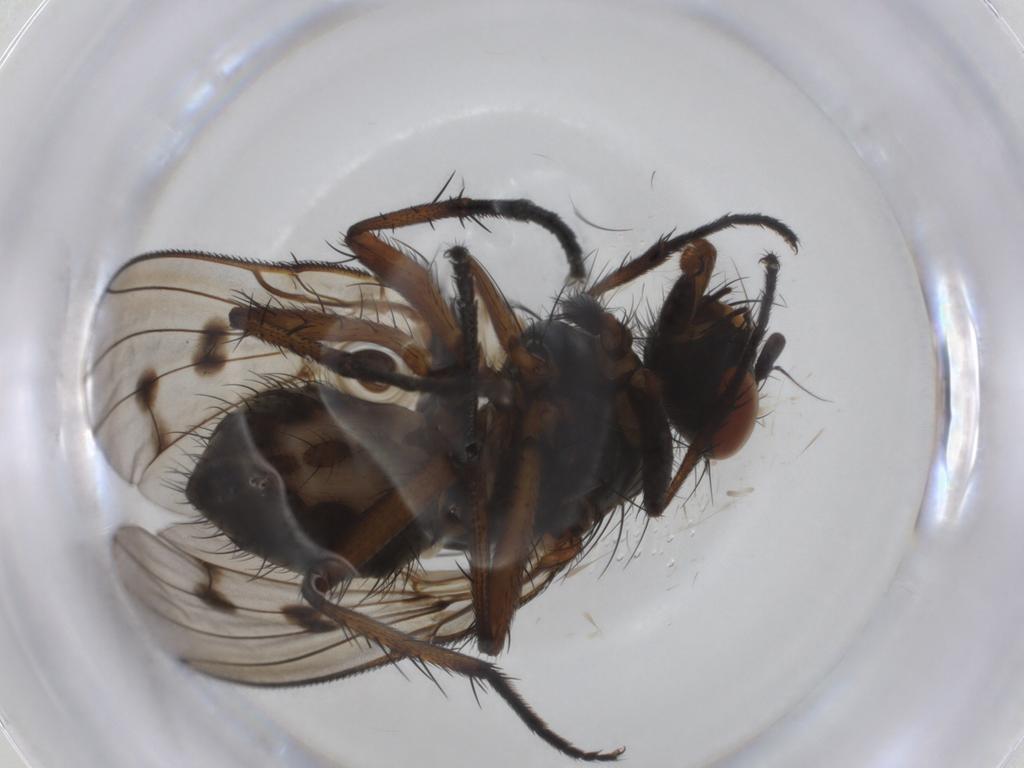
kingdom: Animalia
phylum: Arthropoda
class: Insecta
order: Diptera
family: Anthomyiidae
